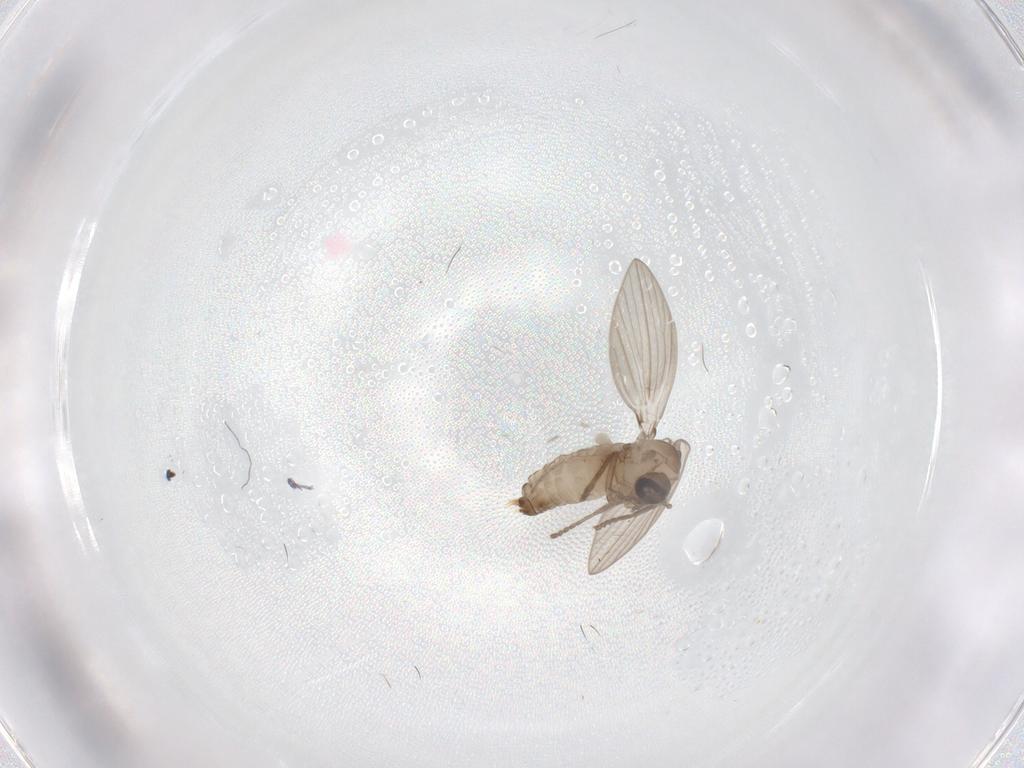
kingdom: Animalia
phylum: Arthropoda
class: Insecta
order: Diptera
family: Psychodidae
